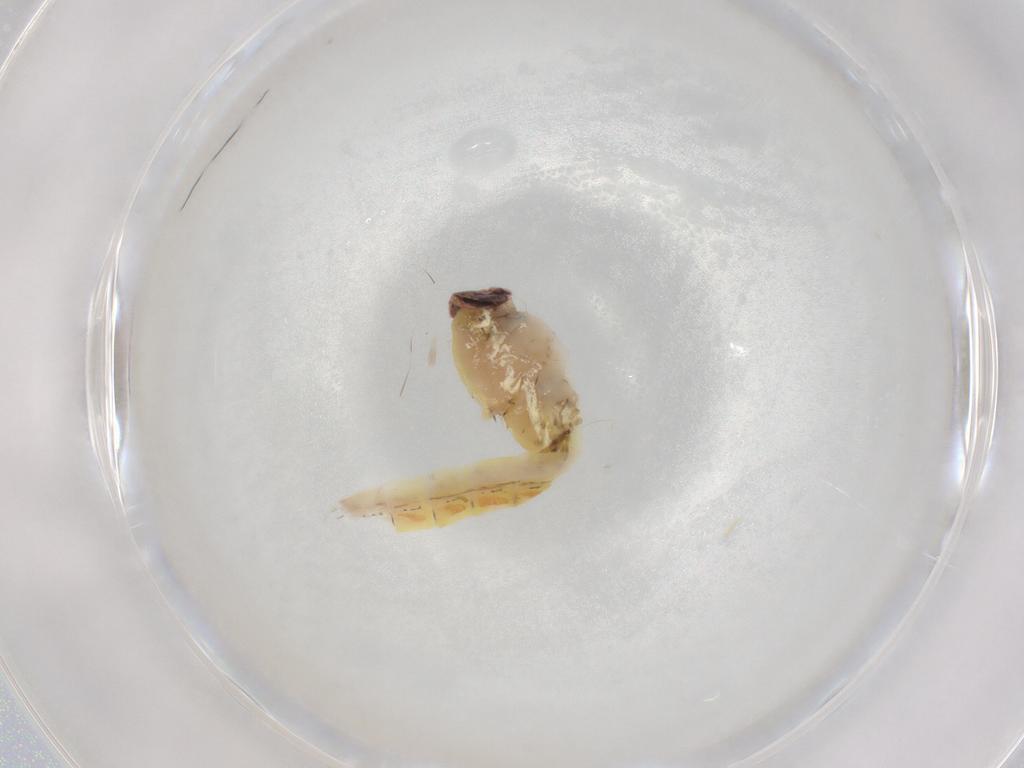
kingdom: Animalia
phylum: Arthropoda
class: Insecta
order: Ephemeroptera
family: Baetidae
